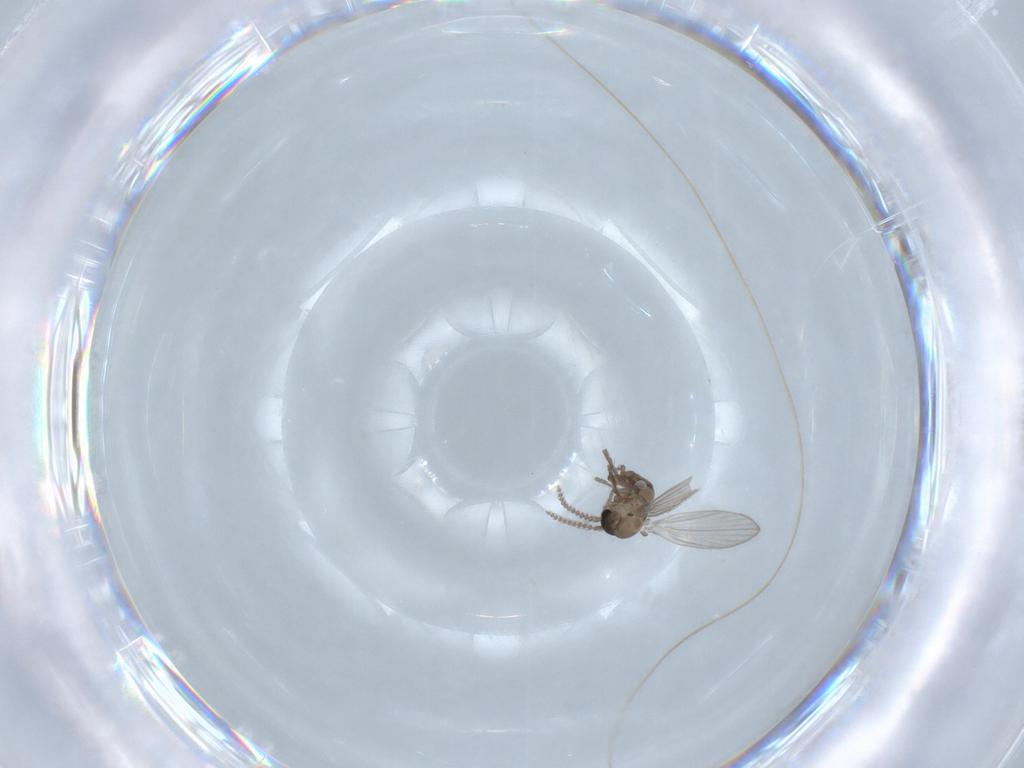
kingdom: Animalia
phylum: Arthropoda
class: Insecta
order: Diptera
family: Psychodidae
